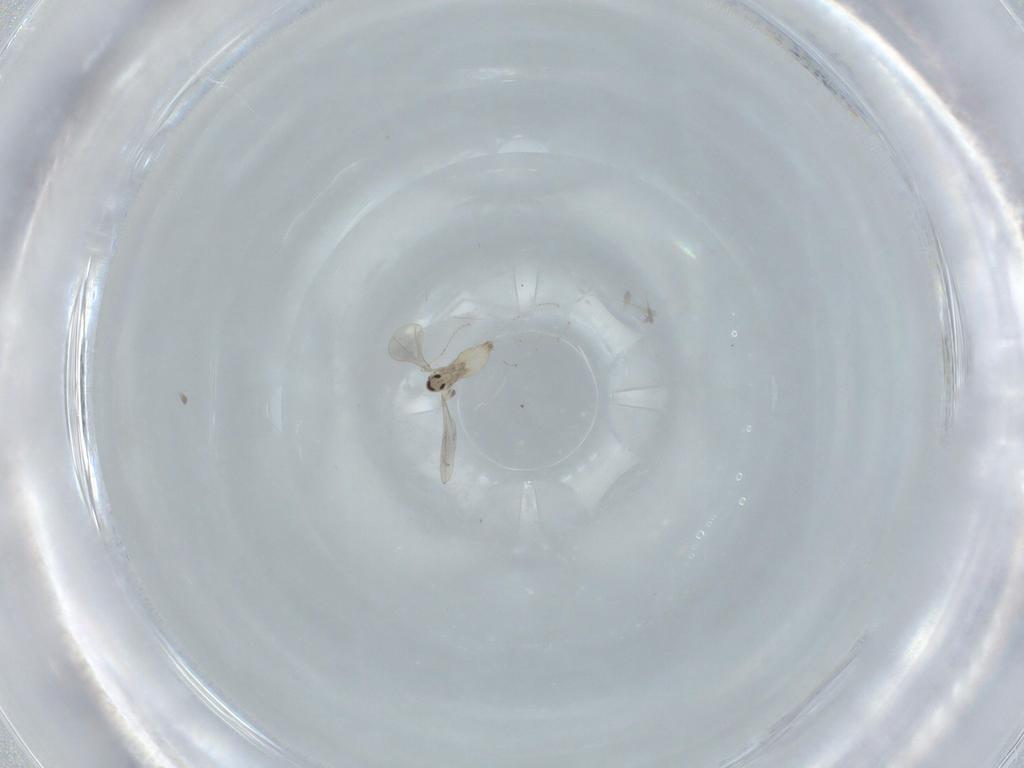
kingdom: Animalia
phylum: Arthropoda
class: Insecta
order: Diptera
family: Cecidomyiidae
